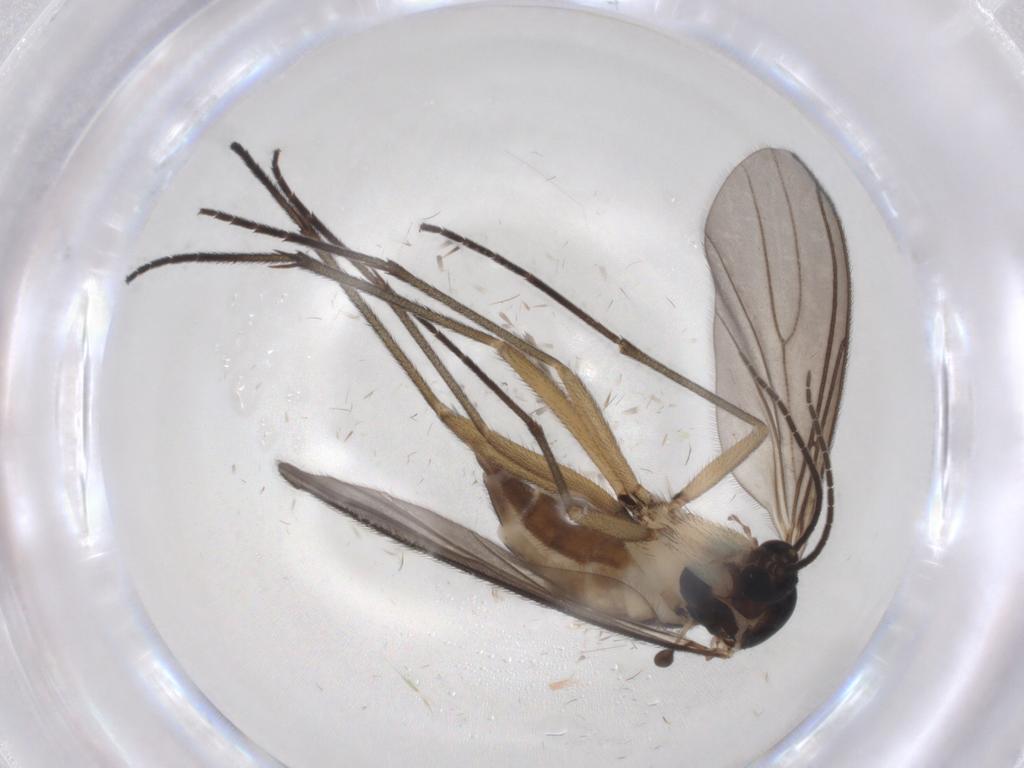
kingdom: Animalia
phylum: Arthropoda
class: Insecta
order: Diptera
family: Sciaridae
